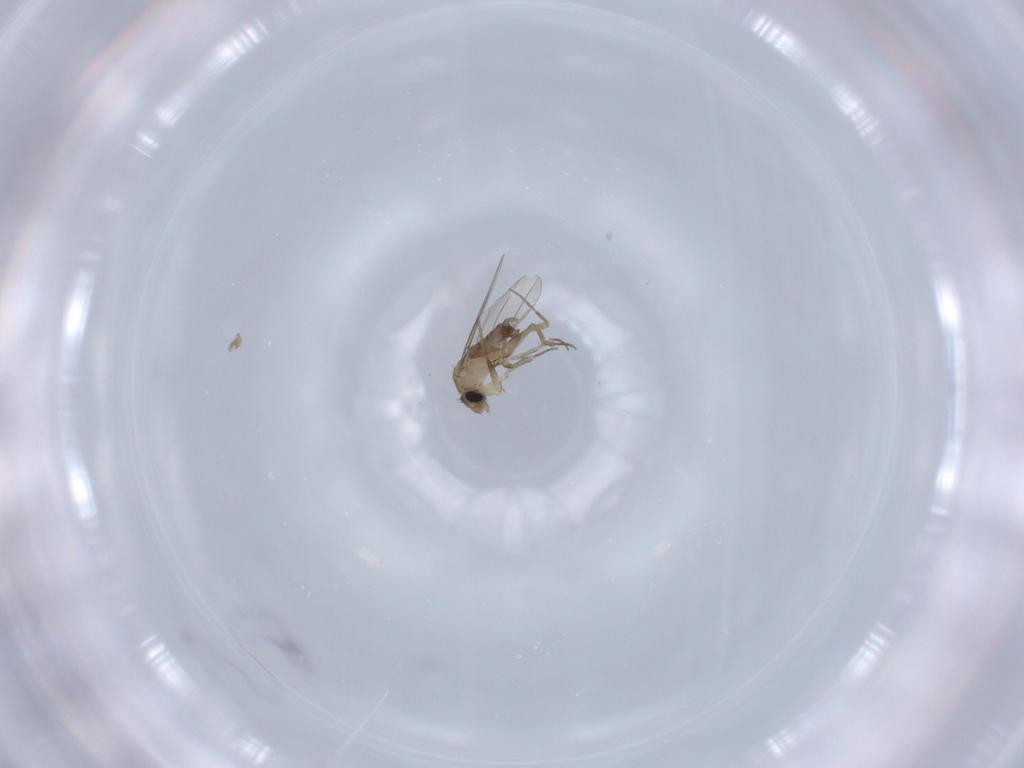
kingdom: Animalia
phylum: Arthropoda
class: Insecta
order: Diptera
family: Phoridae
